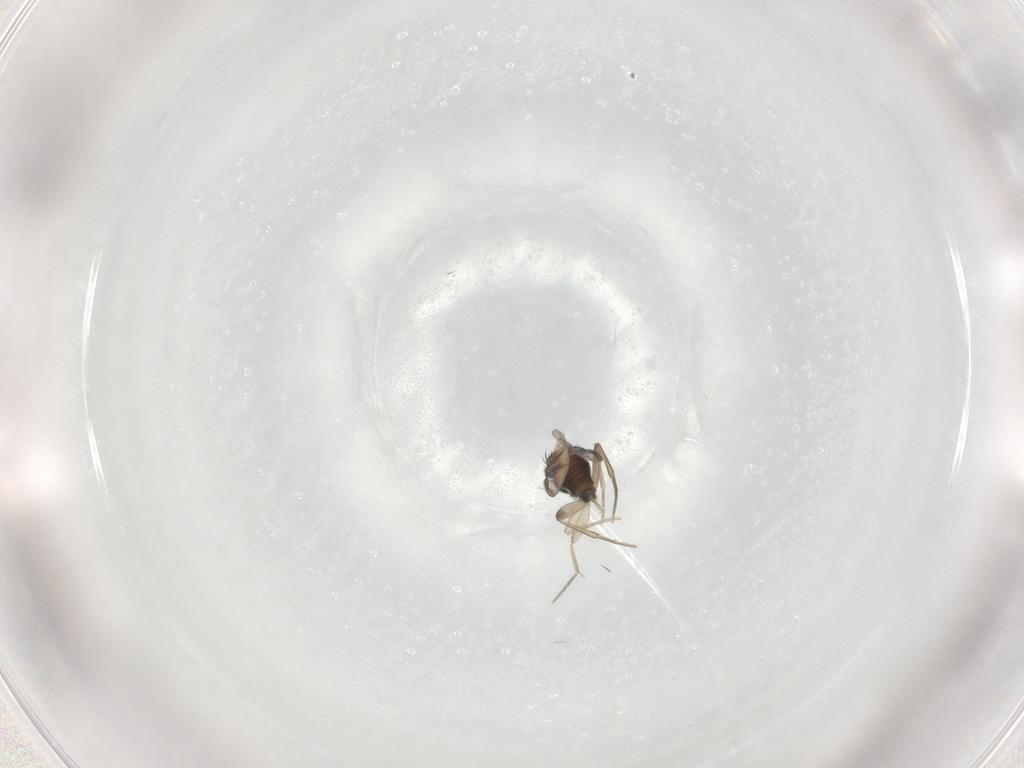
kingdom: Animalia
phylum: Arthropoda
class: Insecta
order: Diptera
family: Phoridae
